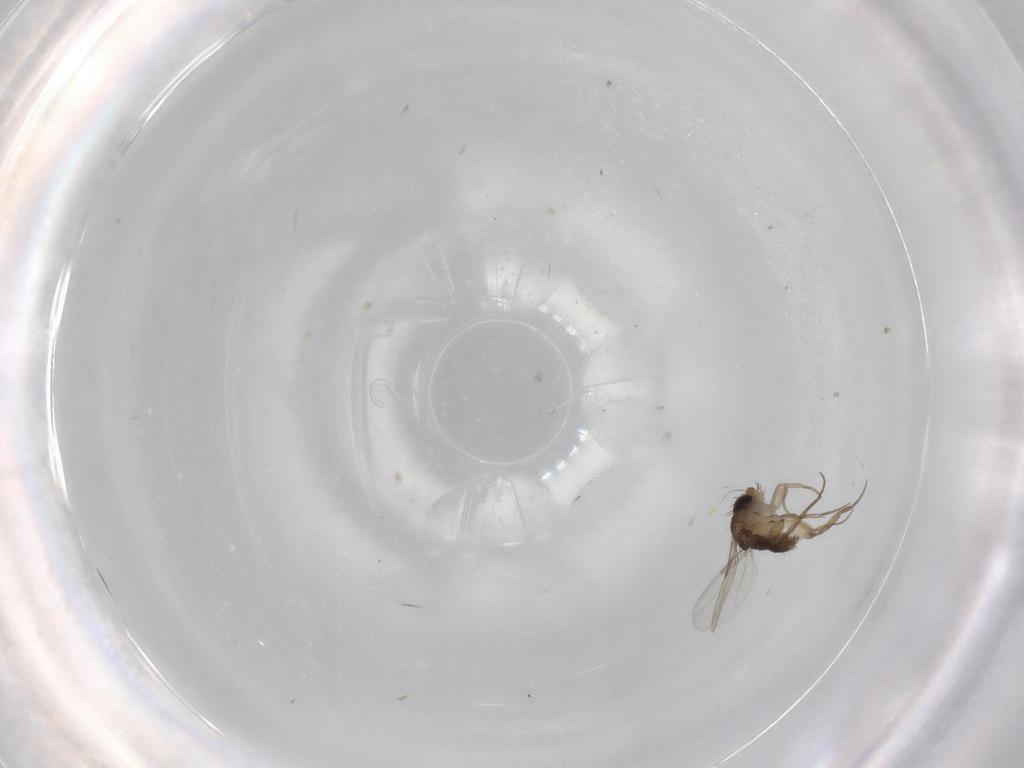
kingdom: Animalia
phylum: Arthropoda
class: Insecta
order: Diptera
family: Phoridae
